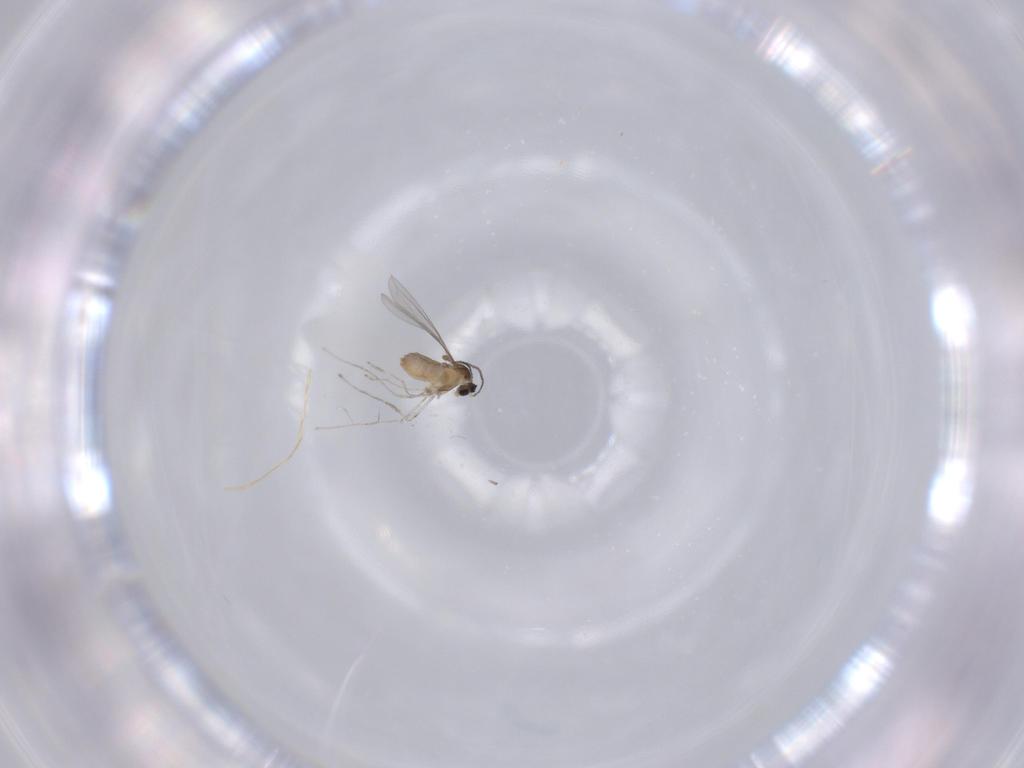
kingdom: Animalia
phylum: Arthropoda
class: Insecta
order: Diptera
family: Cecidomyiidae
